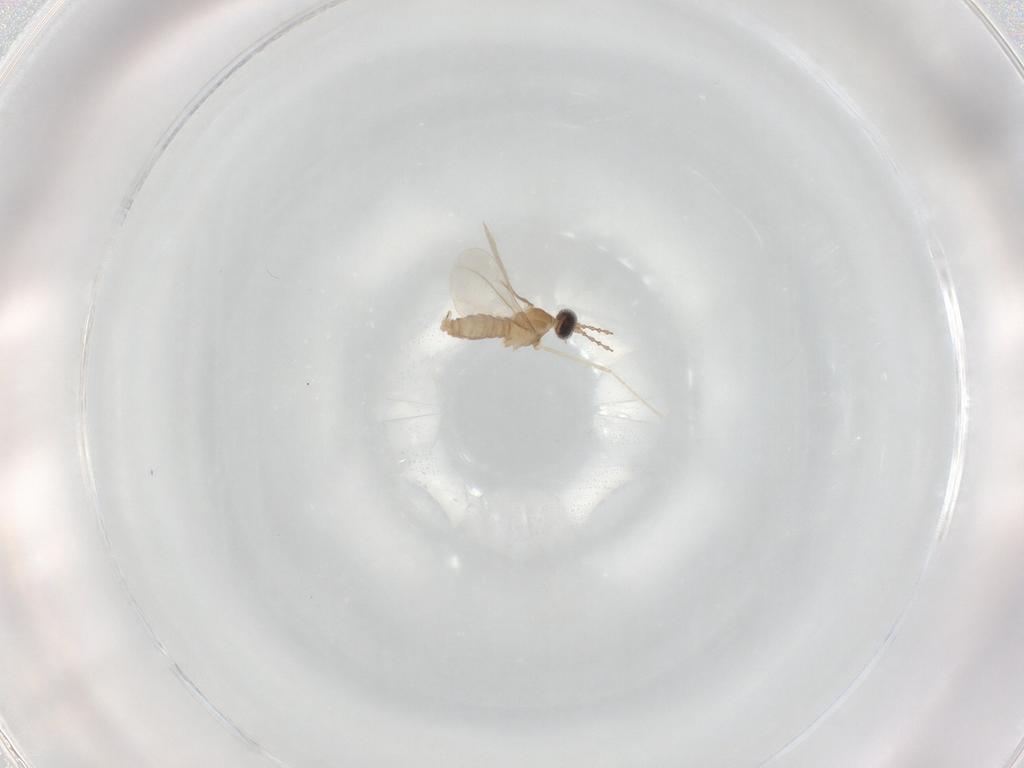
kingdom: Animalia
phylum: Arthropoda
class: Insecta
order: Diptera
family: Cecidomyiidae
